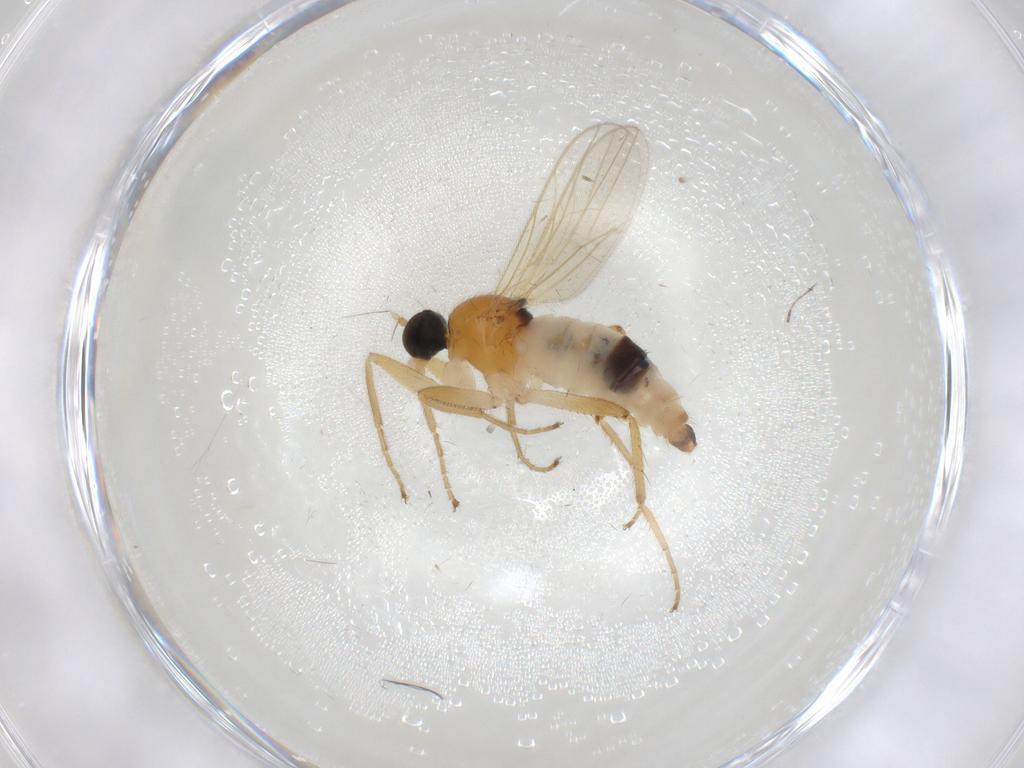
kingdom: Animalia
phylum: Arthropoda
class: Insecta
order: Diptera
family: Hybotidae
